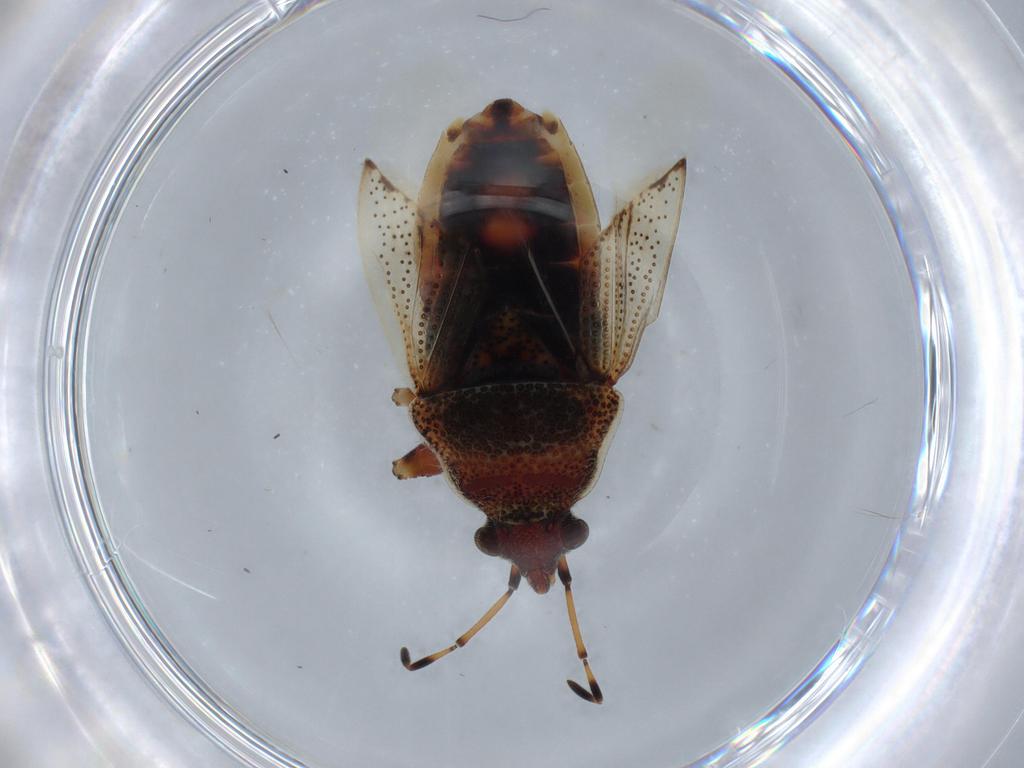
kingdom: Animalia
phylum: Arthropoda
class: Insecta
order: Hemiptera
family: Rhyparochromidae
